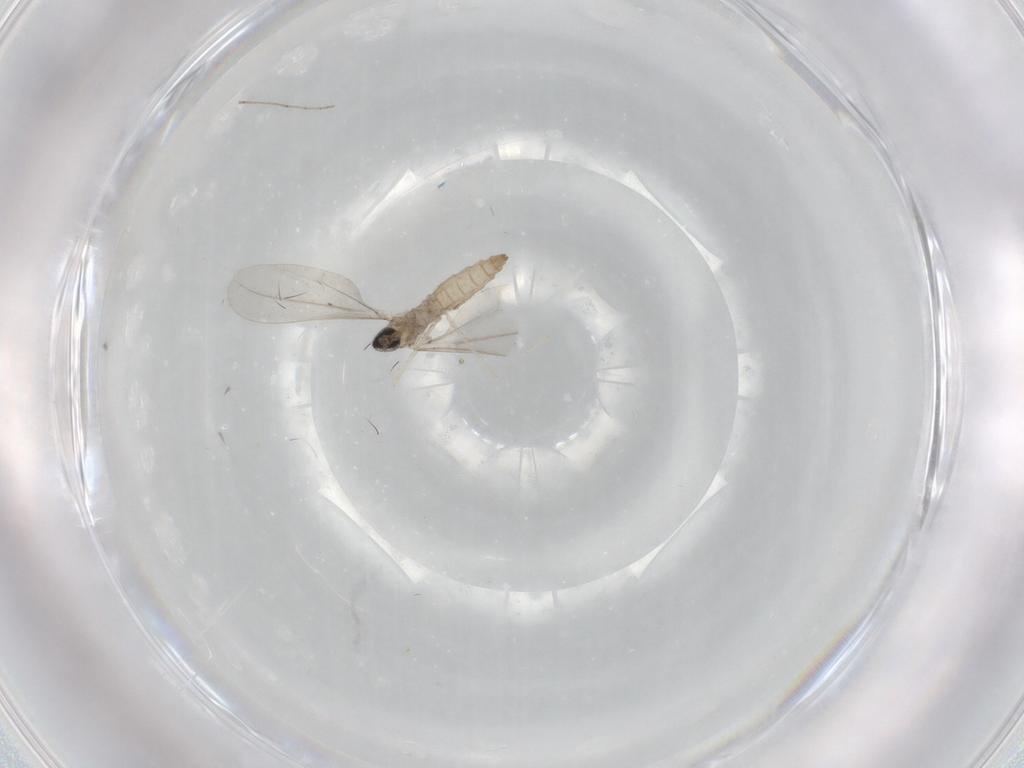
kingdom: Animalia
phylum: Arthropoda
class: Insecta
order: Diptera
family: Cecidomyiidae
